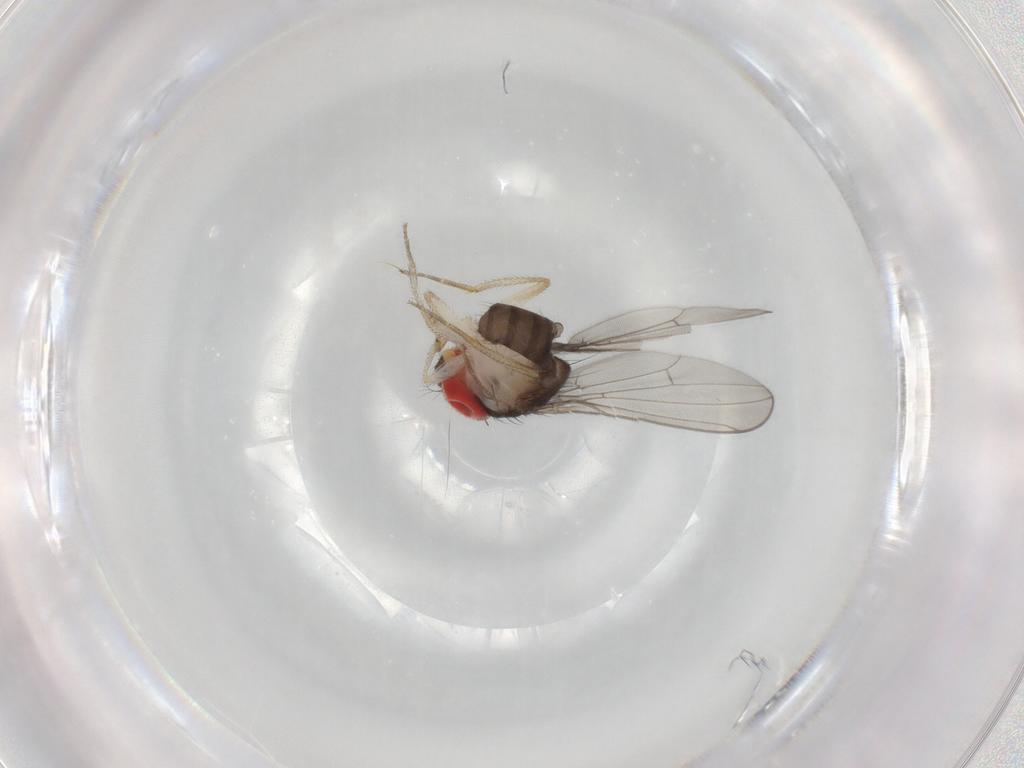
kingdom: Animalia
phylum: Arthropoda
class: Insecta
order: Diptera
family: Drosophilidae
